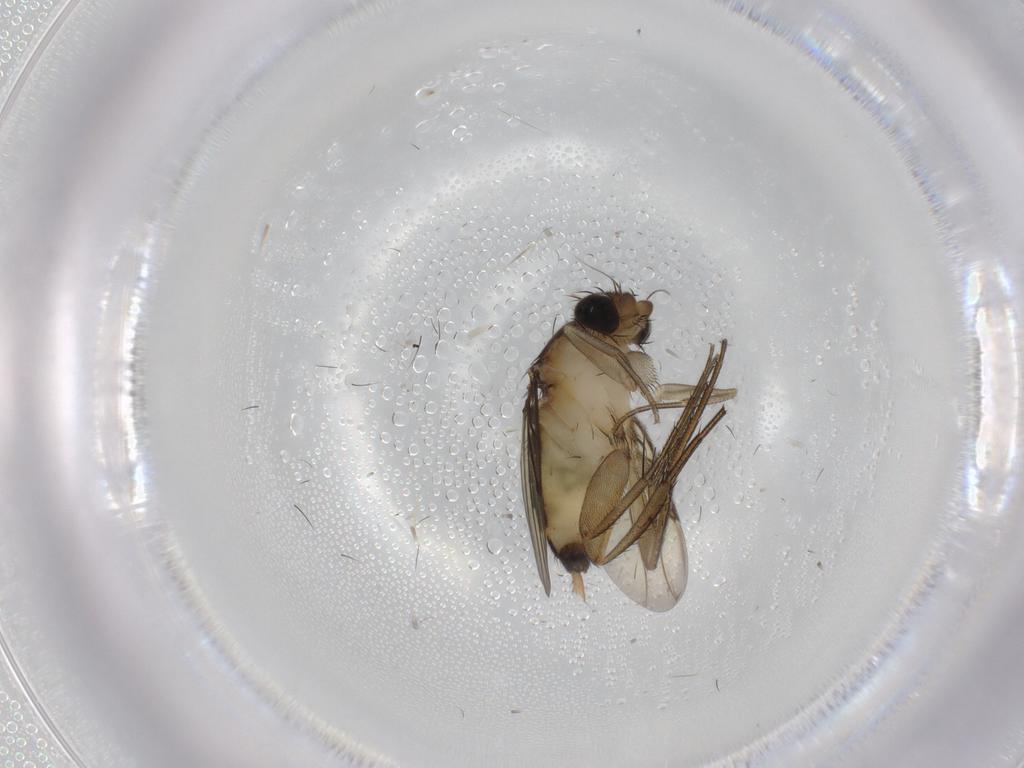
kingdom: Animalia
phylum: Arthropoda
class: Insecta
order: Diptera
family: Phoridae
